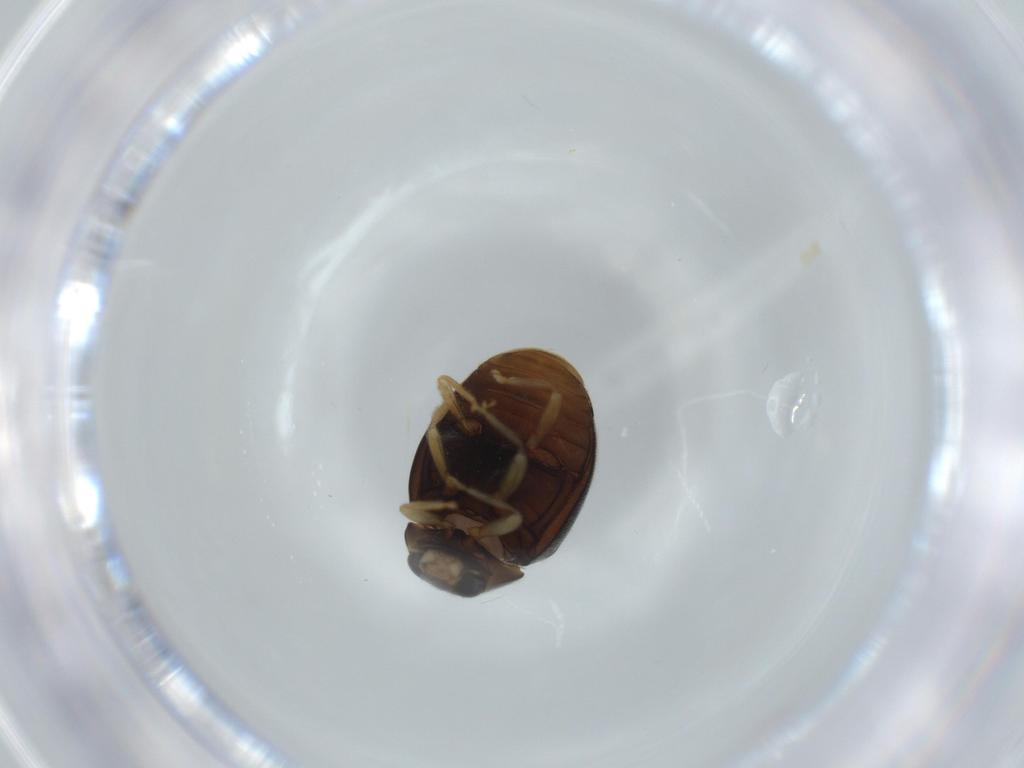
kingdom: Animalia
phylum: Arthropoda
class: Insecta
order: Coleoptera
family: Coccinellidae
